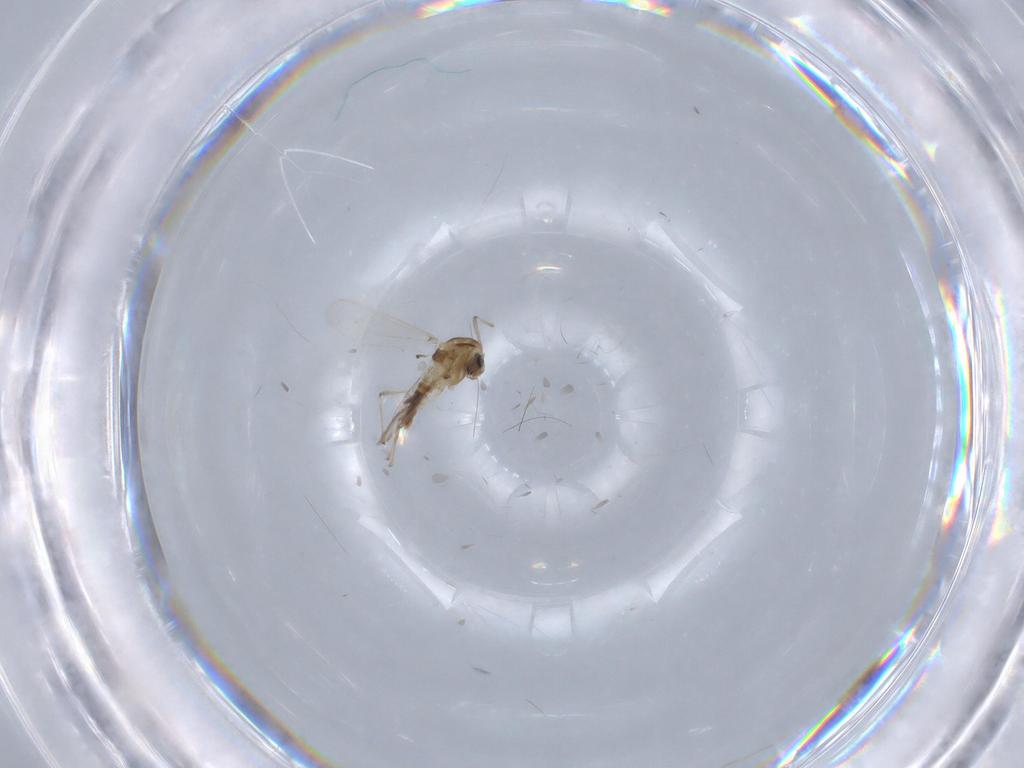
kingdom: Animalia
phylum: Arthropoda
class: Insecta
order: Diptera
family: Chironomidae
